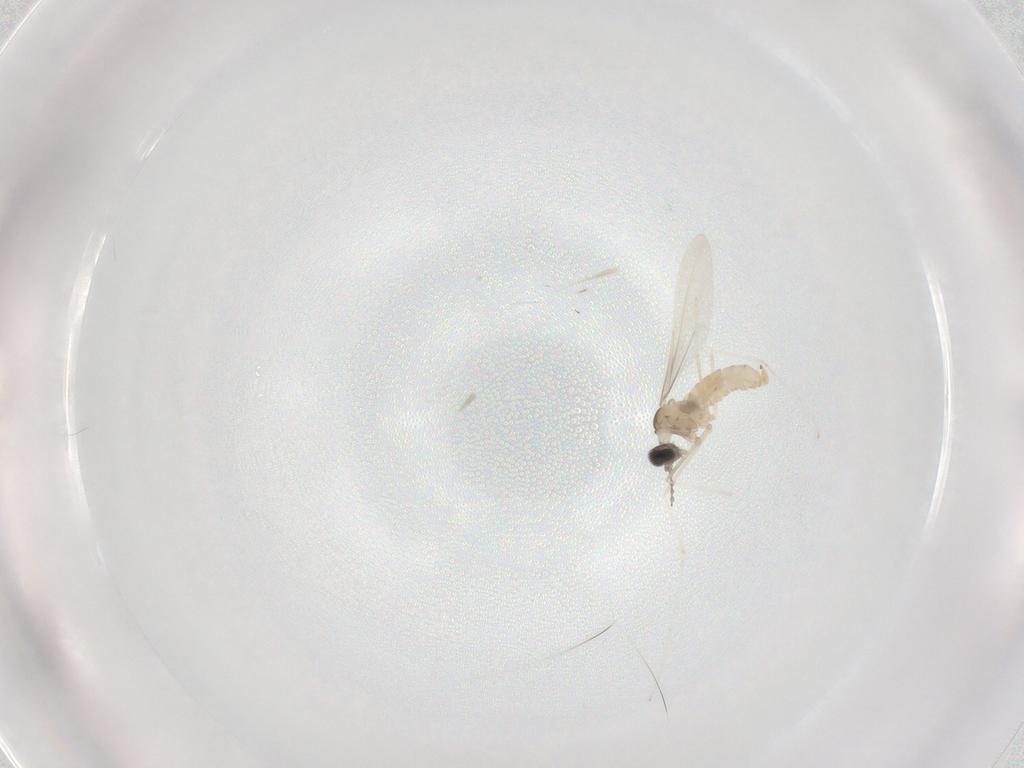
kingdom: Animalia
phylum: Arthropoda
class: Insecta
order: Diptera
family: Cecidomyiidae
